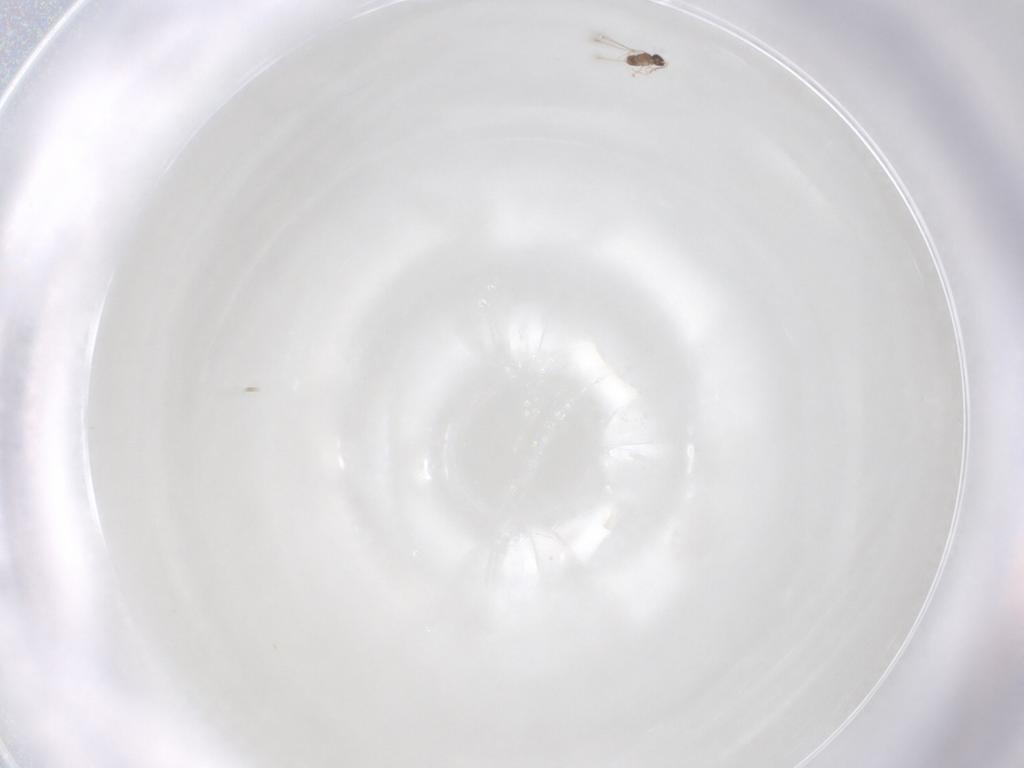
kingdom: Animalia
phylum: Arthropoda
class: Insecta
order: Hymenoptera
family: Mymaridae
